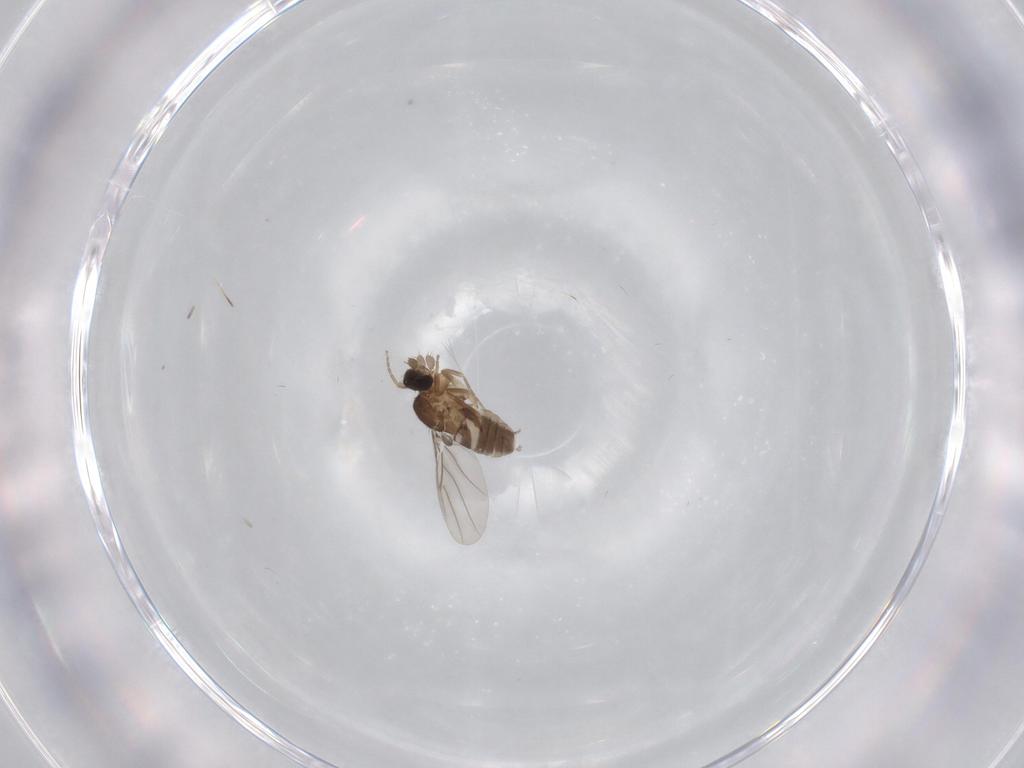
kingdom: Animalia
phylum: Arthropoda
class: Insecta
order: Diptera
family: Phoridae
